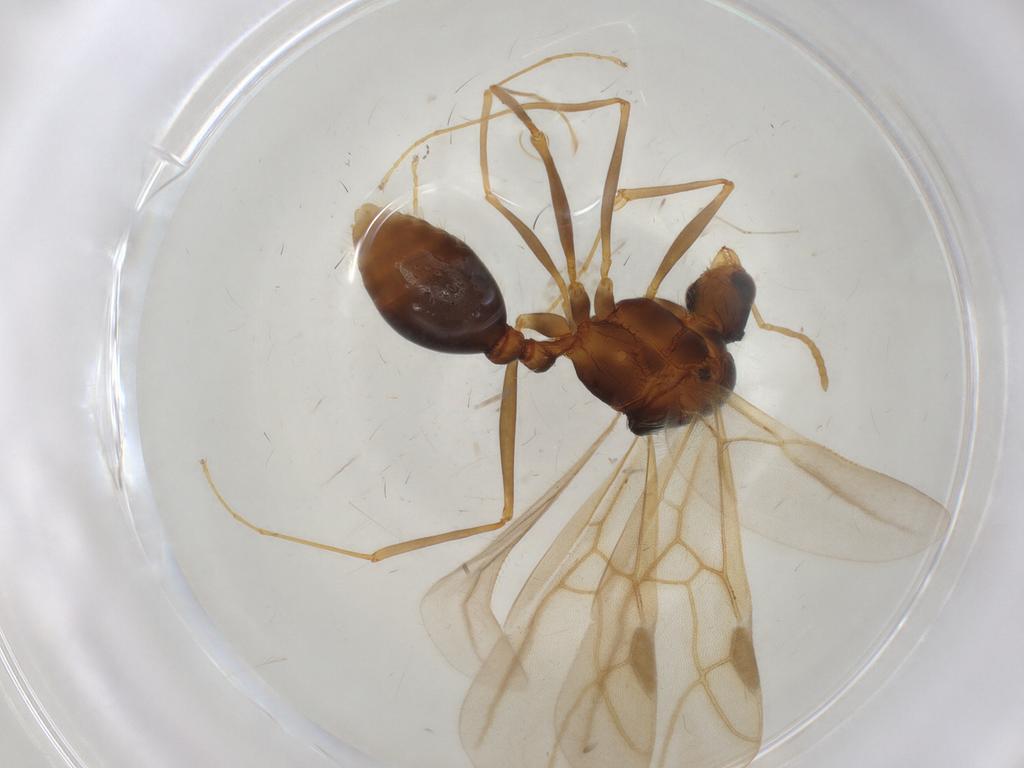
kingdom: Animalia
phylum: Arthropoda
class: Insecta
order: Hymenoptera
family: Formicidae
